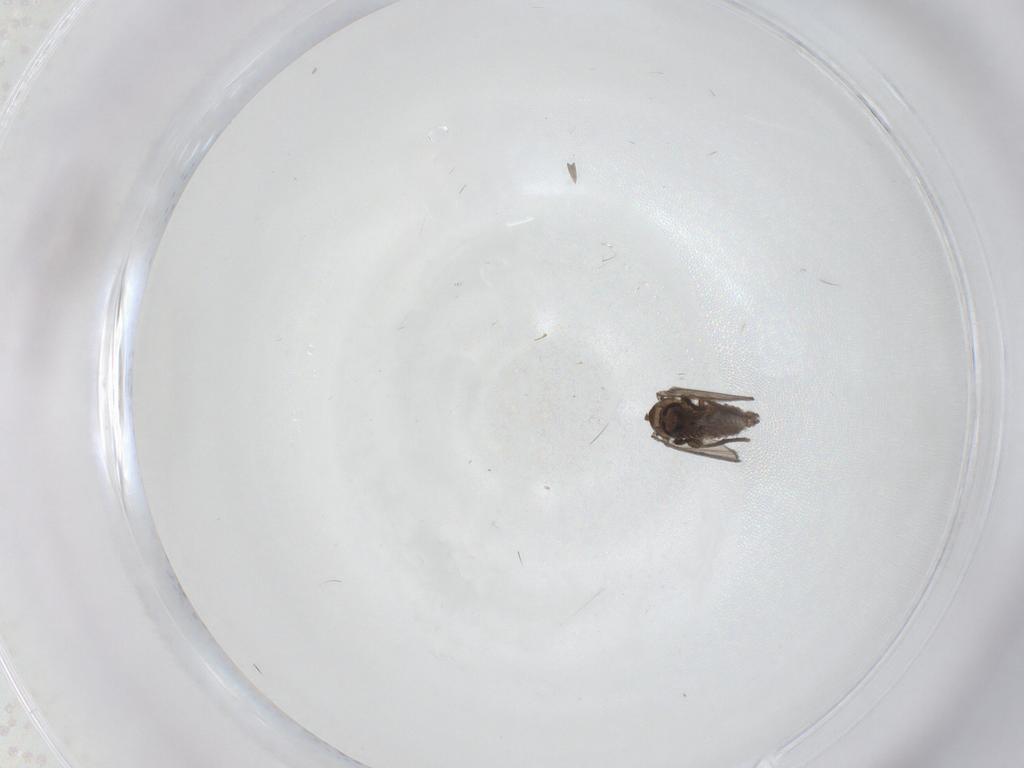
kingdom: Animalia
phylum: Arthropoda
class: Insecta
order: Diptera
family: Psychodidae
